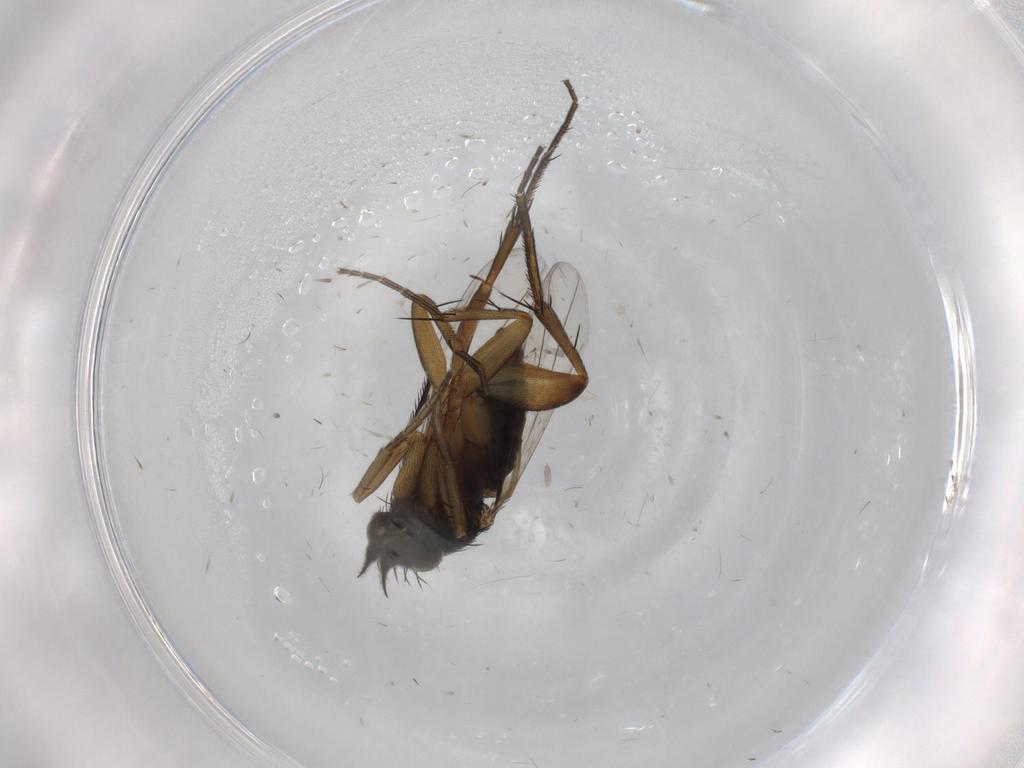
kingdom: Animalia
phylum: Arthropoda
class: Insecta
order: Diptera
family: Phoridae
